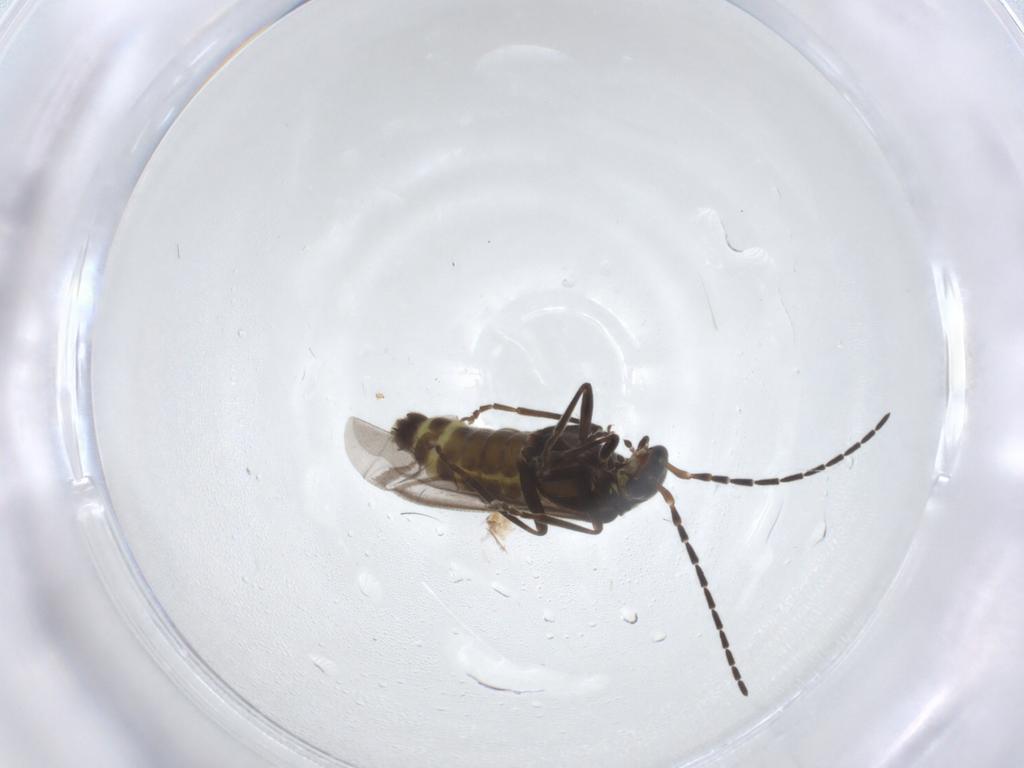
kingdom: Animalia
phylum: Arthropoda
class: Insecta
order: Coleoptera
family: Cantharidae
